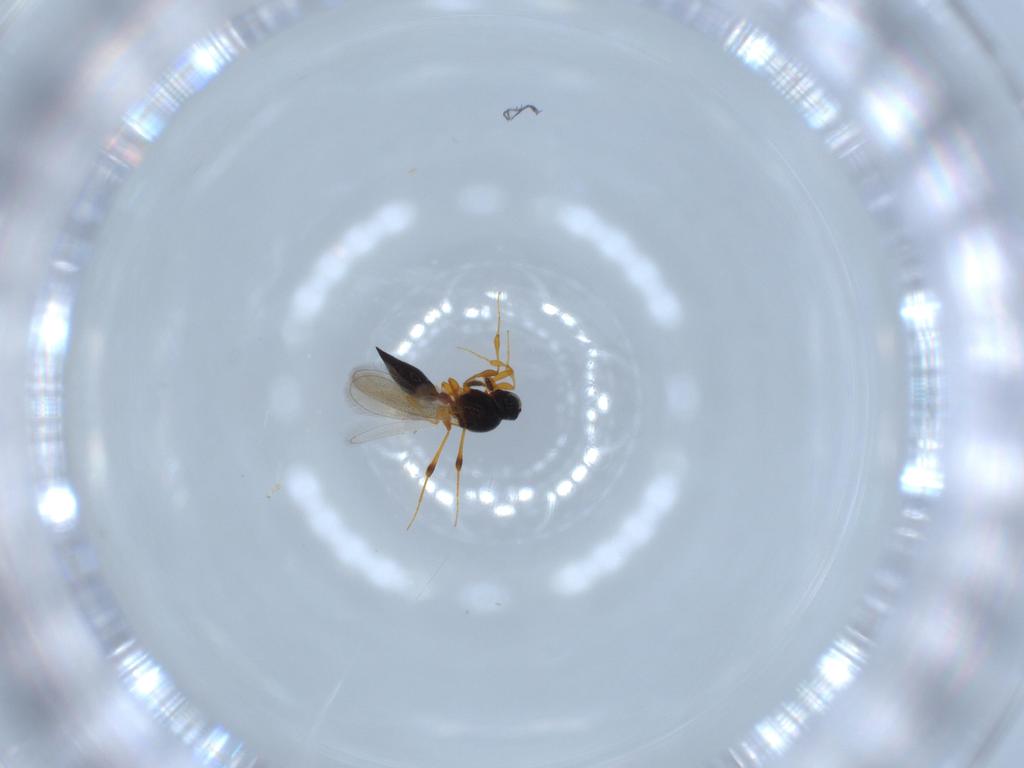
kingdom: Animalia
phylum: Arthropoda
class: Insecta
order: Hymenoptera
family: Platygastridae
